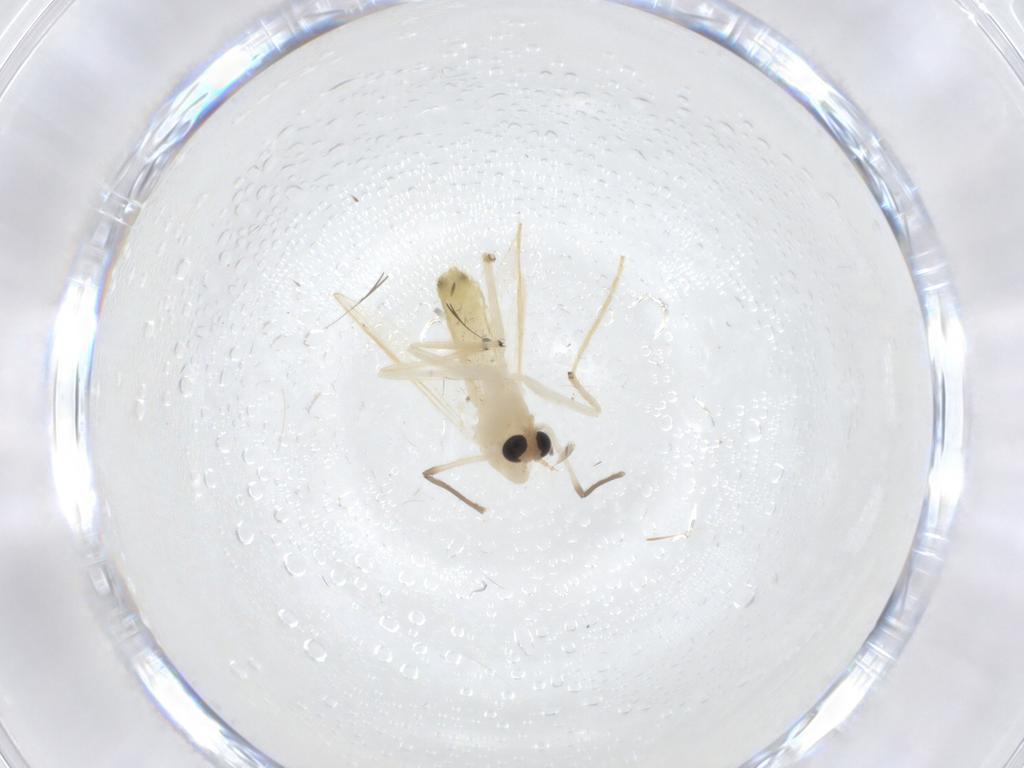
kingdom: Animalia
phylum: Arthropoda
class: Insecta
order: Diptera
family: Chironomidae
